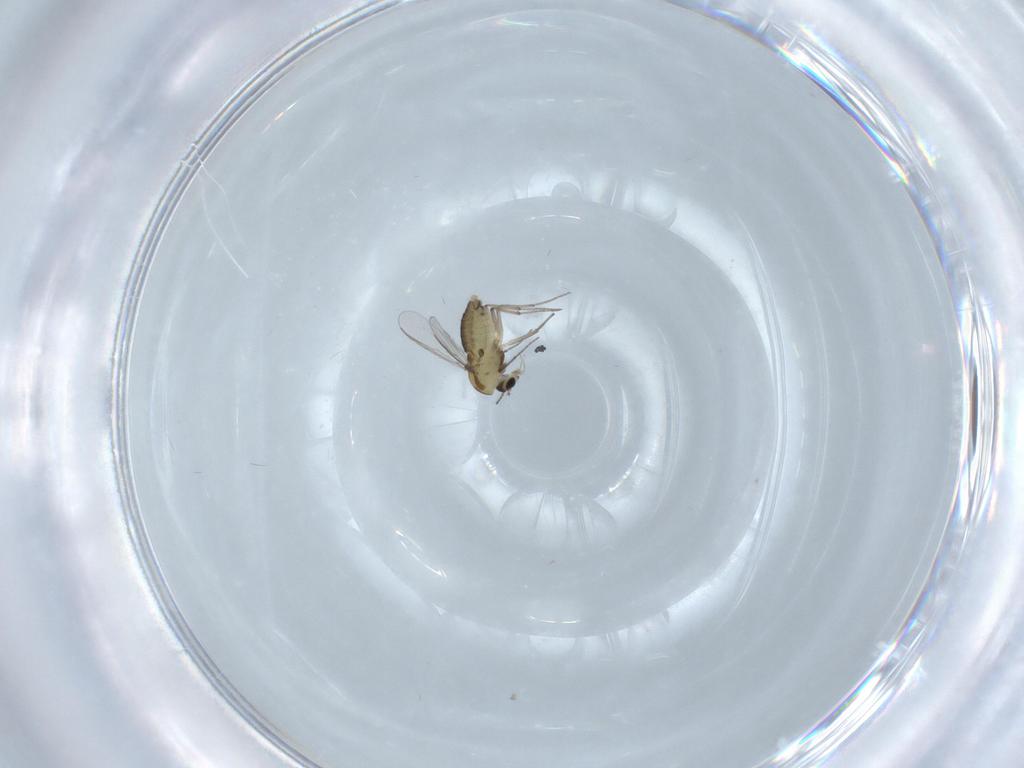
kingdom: Animalia
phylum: Arthropoda
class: Insecta
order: Diptera
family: Chironomidae
